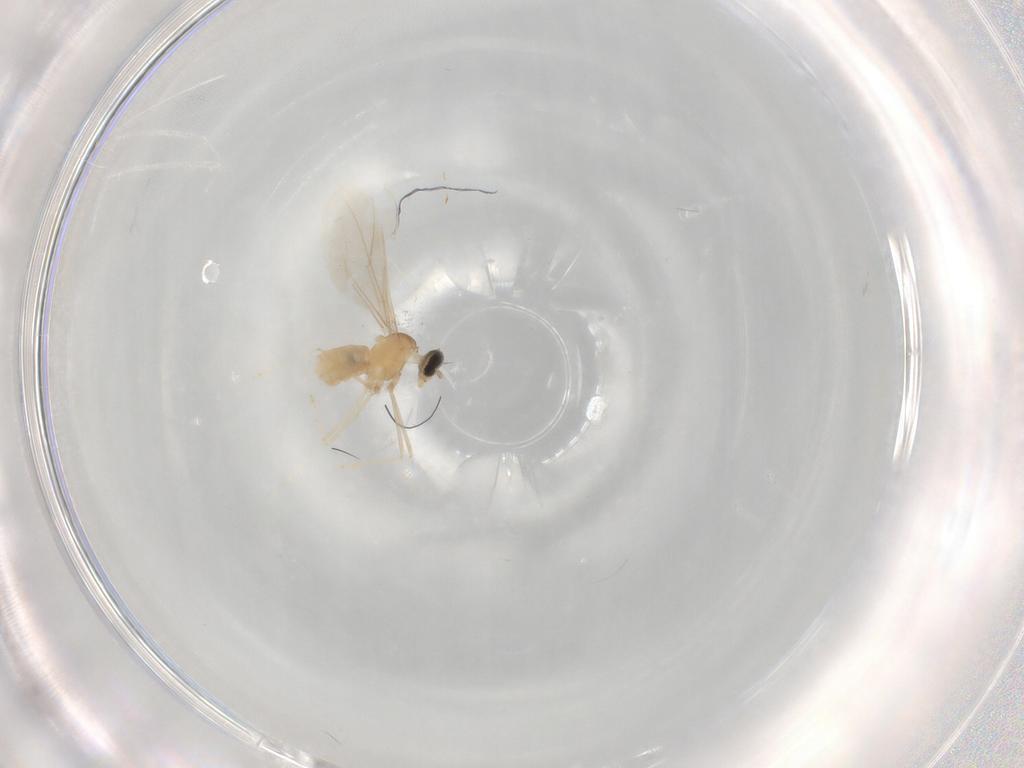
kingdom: Animalia
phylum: Arthropoda
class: Insecta
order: Diptera
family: Cecidomyiidae
